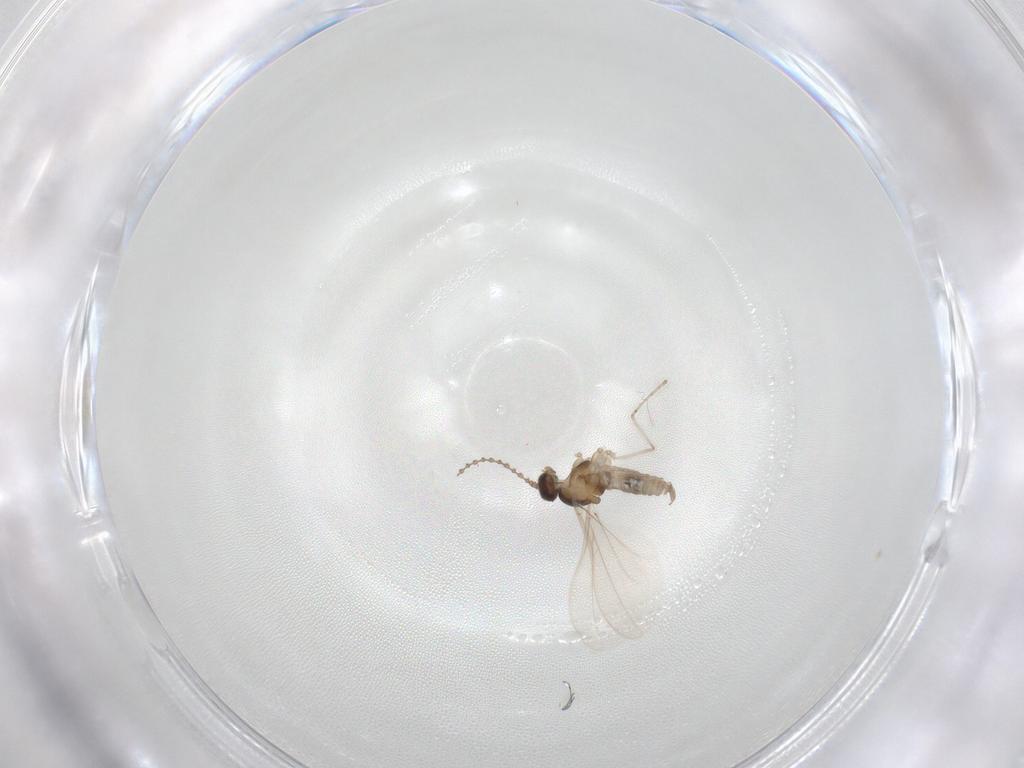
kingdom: Animalia
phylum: Arthropoda
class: Insecta
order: Diptera
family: Cecidomyiidae
